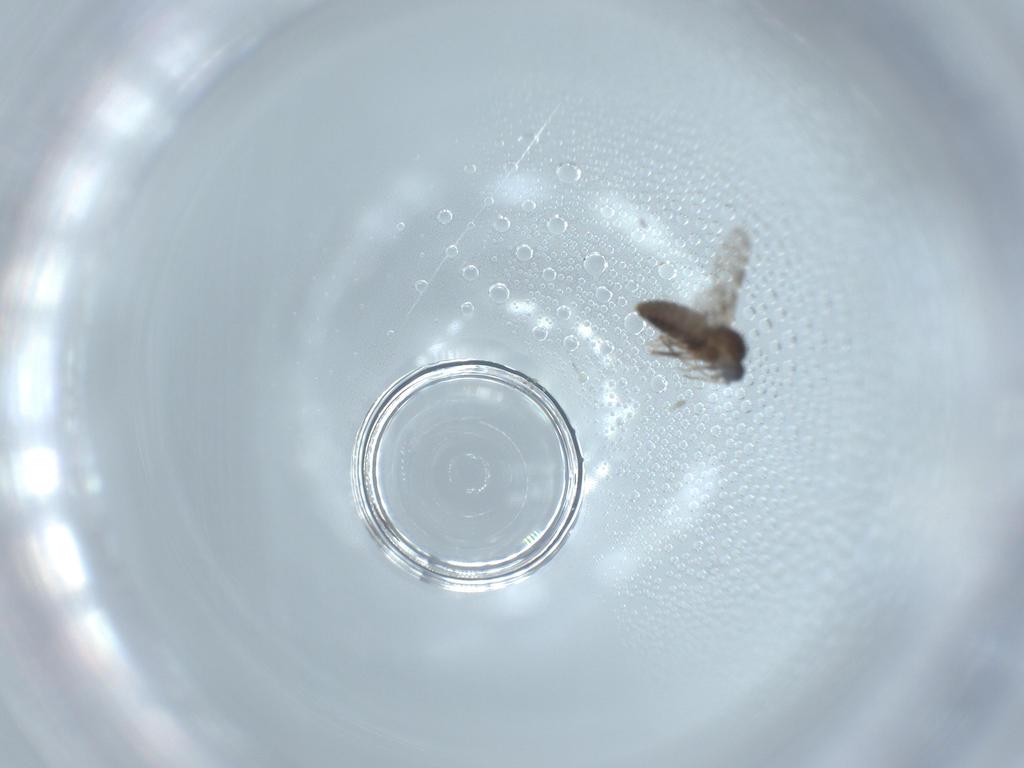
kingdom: Animalia
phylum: Arthropoda
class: Insecta
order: Diptera
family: Ceratopogonidae
